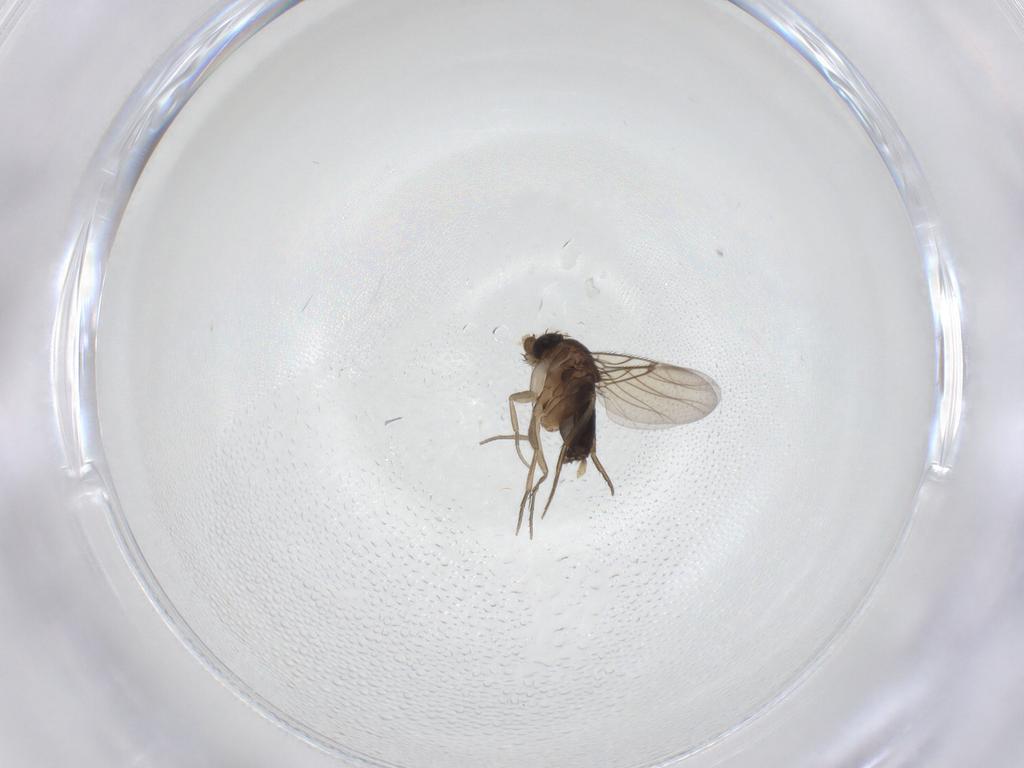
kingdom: Animalia
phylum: Arthropoda
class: Insecta
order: Diptera
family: Phoridae
